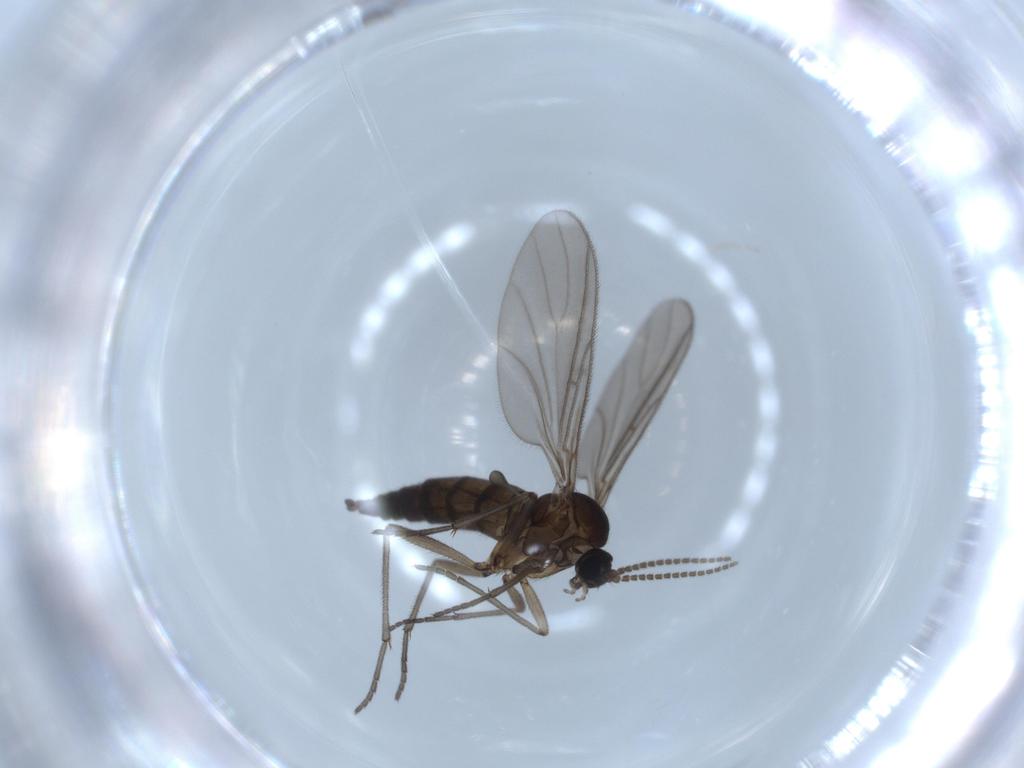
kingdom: Animalia
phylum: Arthropoda
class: Insecta
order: Diptera
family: Sciaridae
